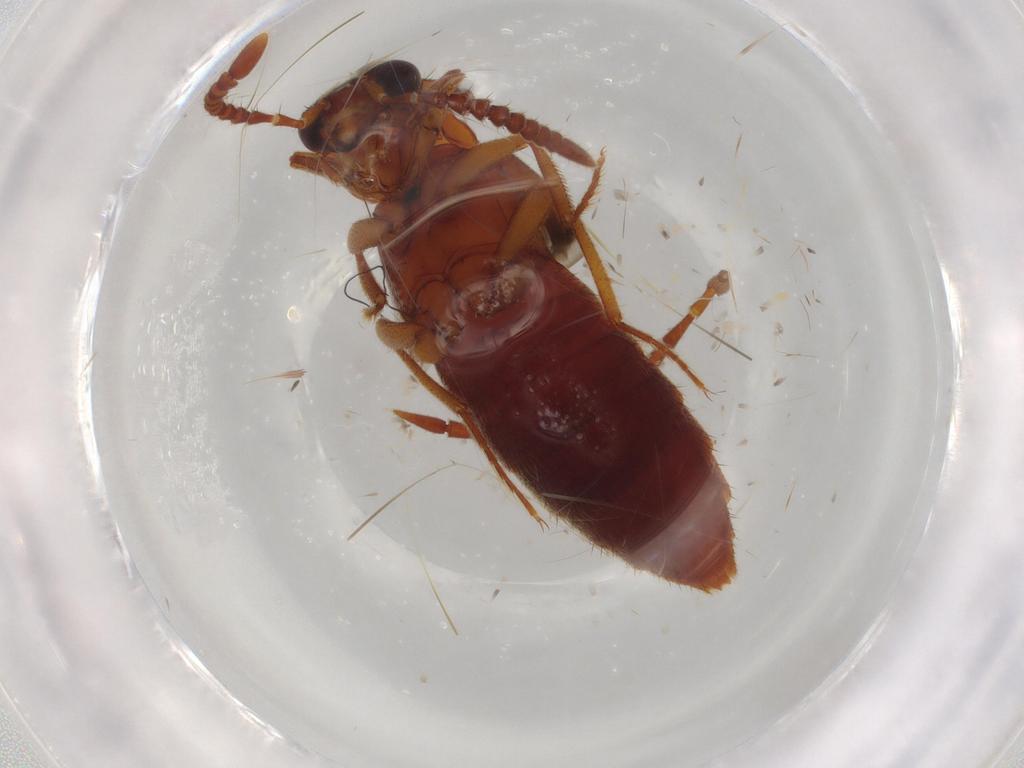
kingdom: Animalia
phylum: Arthropoda
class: Insecta
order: Coleoptera
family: Staphylinidae
